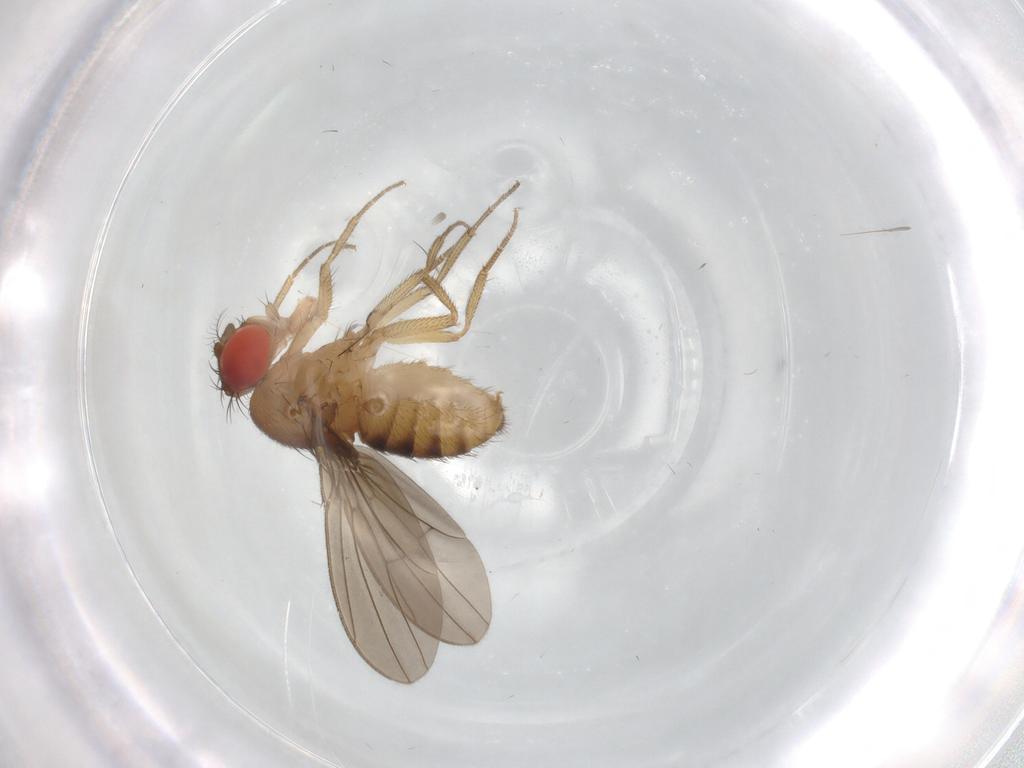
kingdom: Animalia
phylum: Arthropoda
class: Insecta
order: Diptera
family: Drosophilidae
